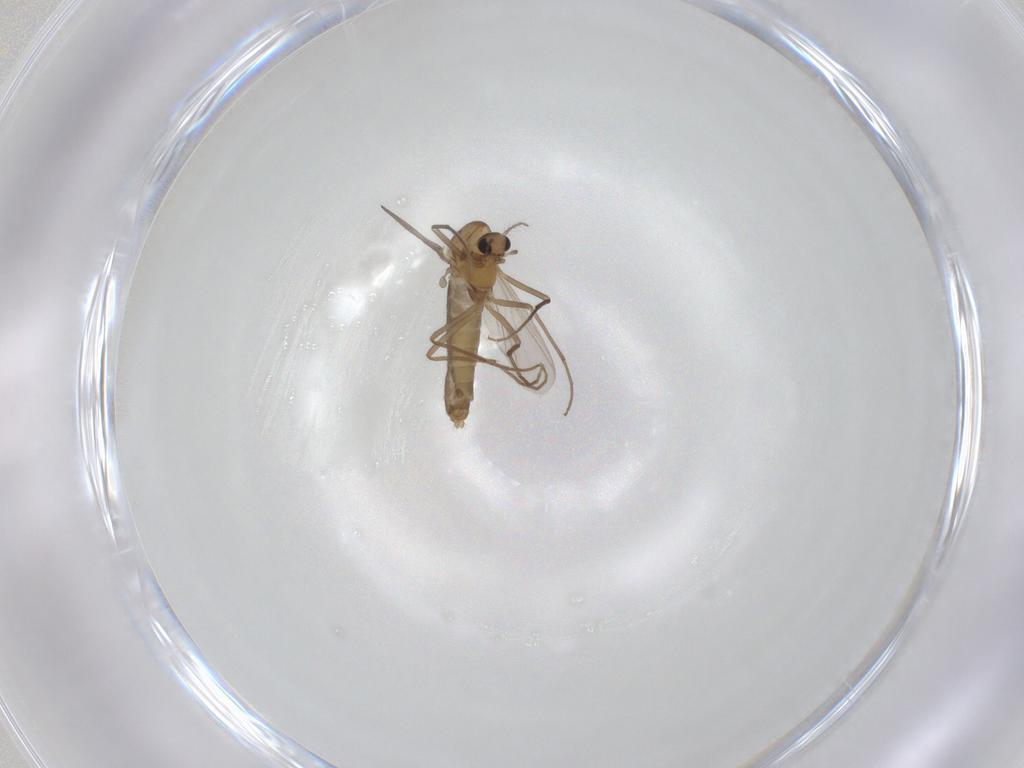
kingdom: Animalia
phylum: Arthropoda
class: Insecta
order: Diptera
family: Chironomidae
